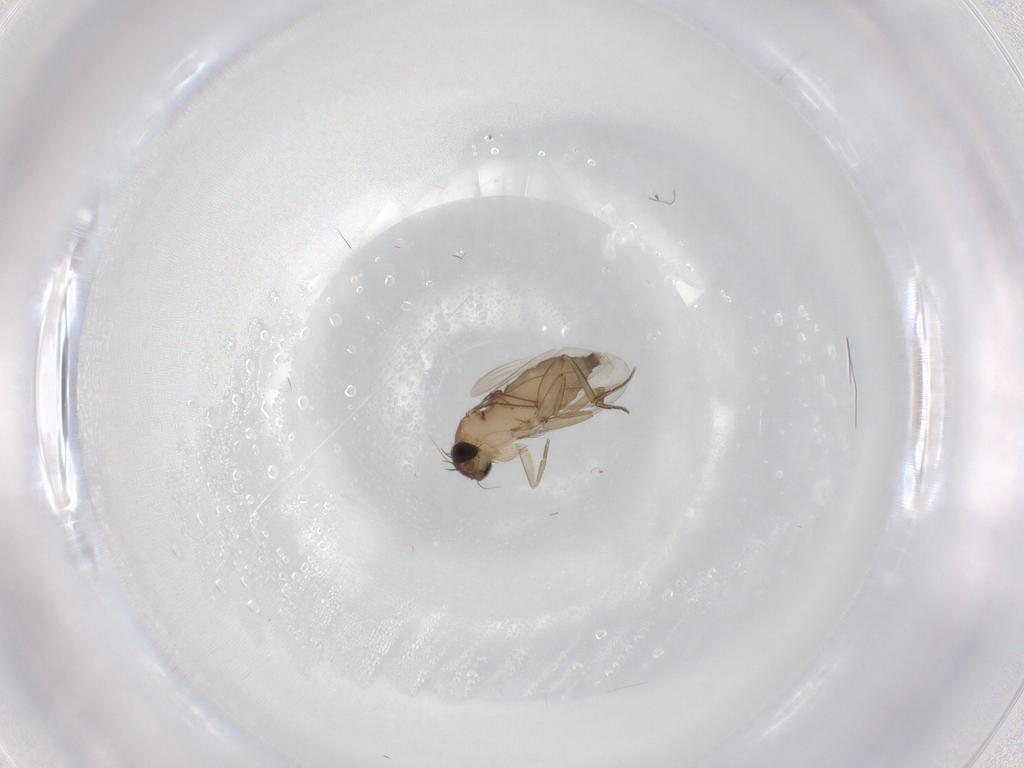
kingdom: Animalia
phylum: Arthropoda
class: Insecta
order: Diptera
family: Phoridae
